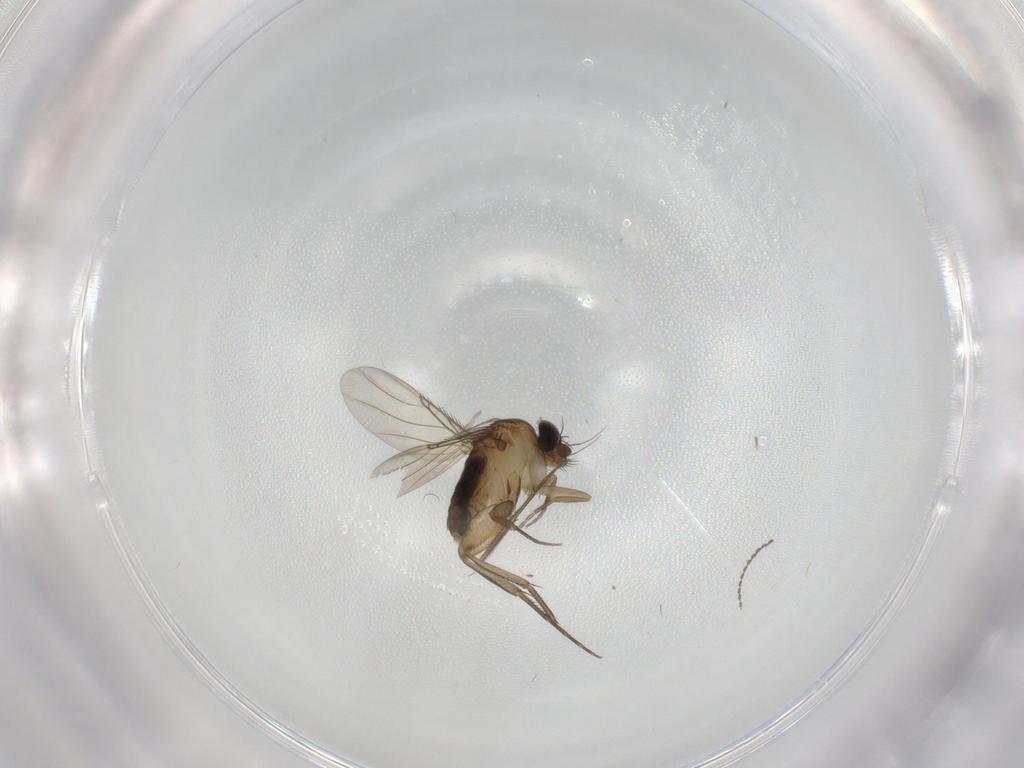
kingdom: Animalia
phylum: Arthropoda
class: Insecta
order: Diptera
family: Phoridae
